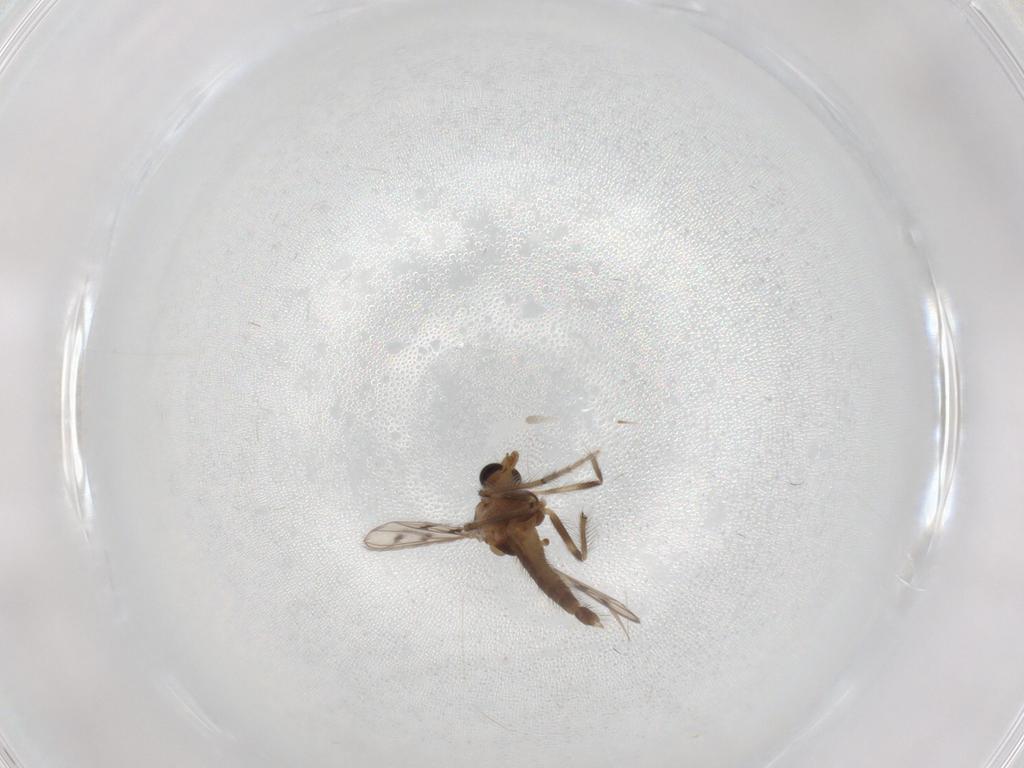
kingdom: Animalia
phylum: Arthropoda
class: Insecta
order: Diptera
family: Chironomidae
